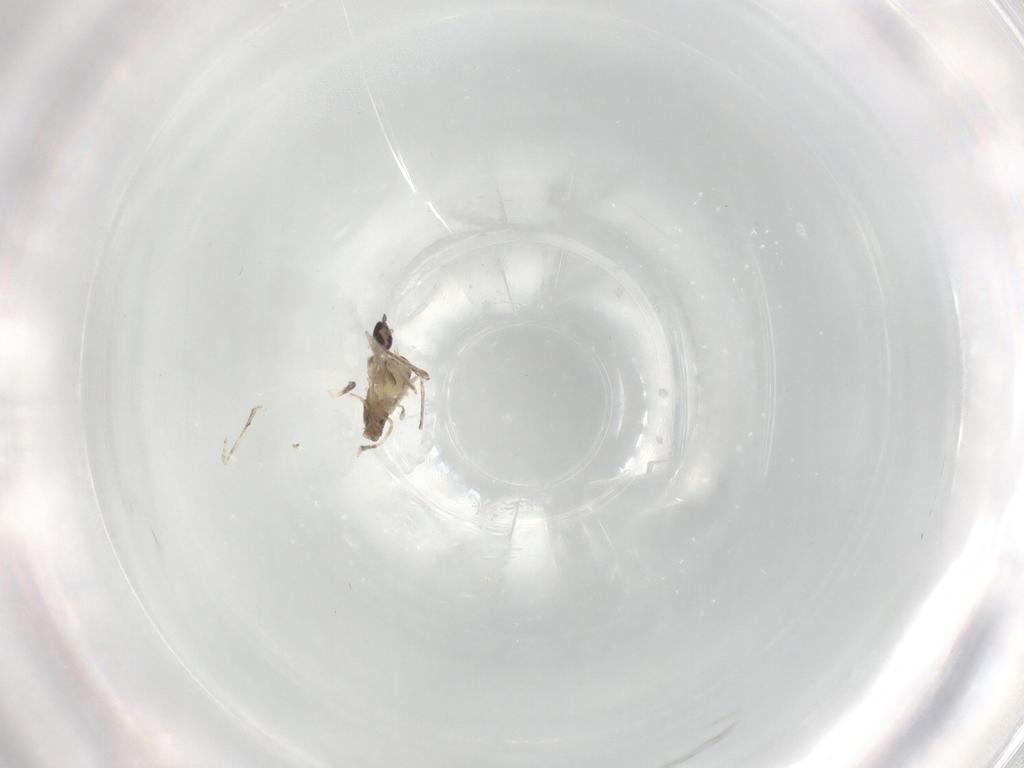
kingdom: Animalia
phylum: Arthropoda
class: Insecta
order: Diptera
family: Cecidomyiidae
